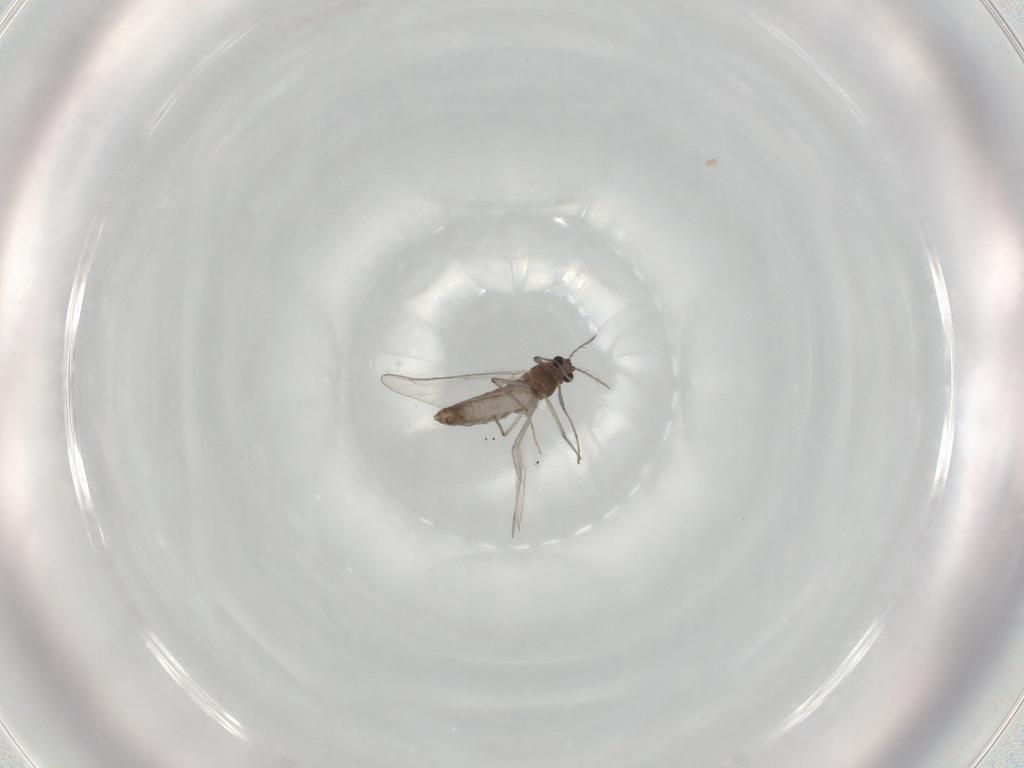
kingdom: Animalia
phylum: Arthropoda
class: Insecta
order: Diptera
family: Chironomidae
